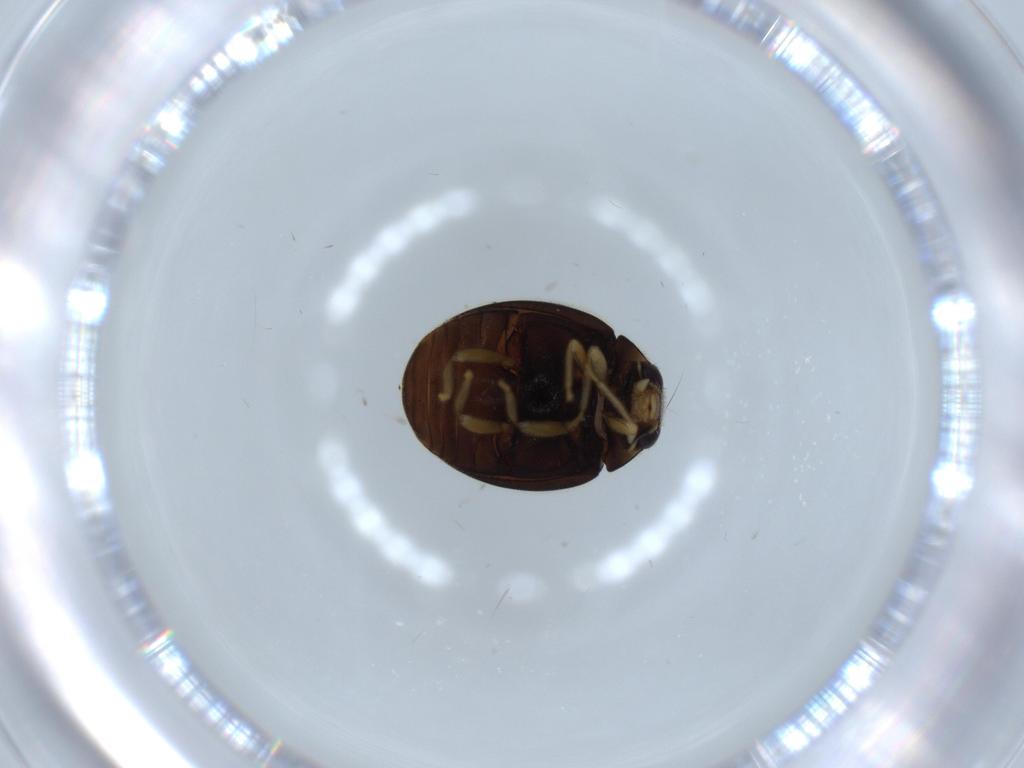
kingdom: Animalia
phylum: Arthropoda
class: Insecta
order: Coleoptera
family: Coccinellidae
